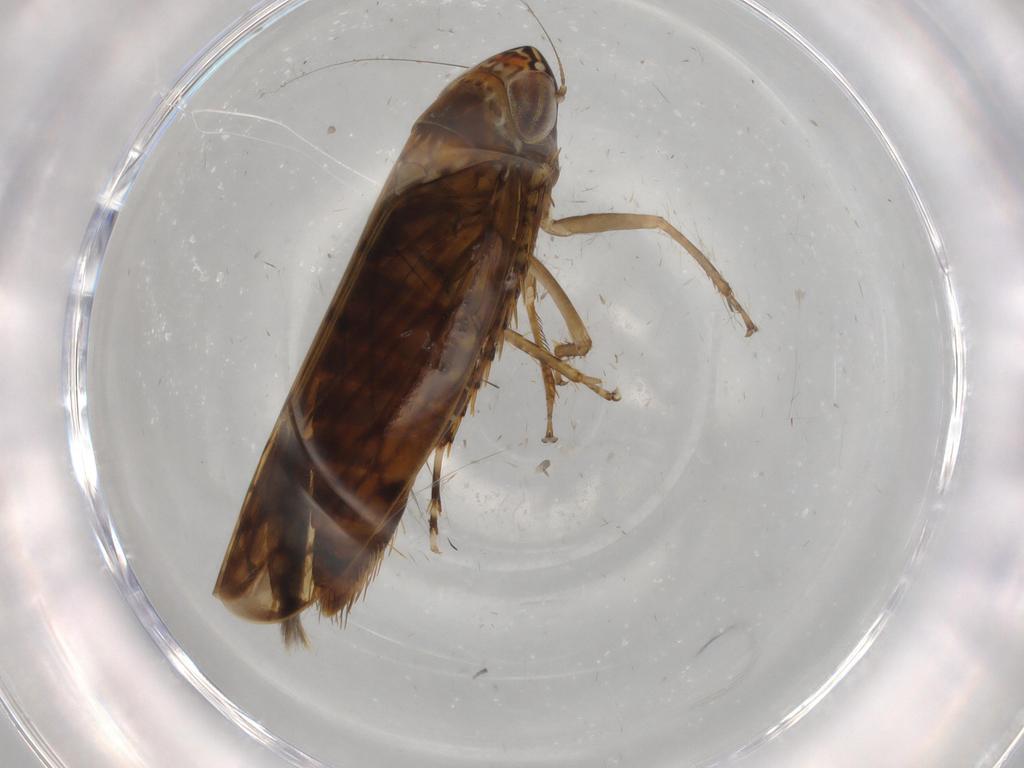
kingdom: Animalia
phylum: Arthropoda
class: Insecta
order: Hemiptera
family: Cicadellidae
